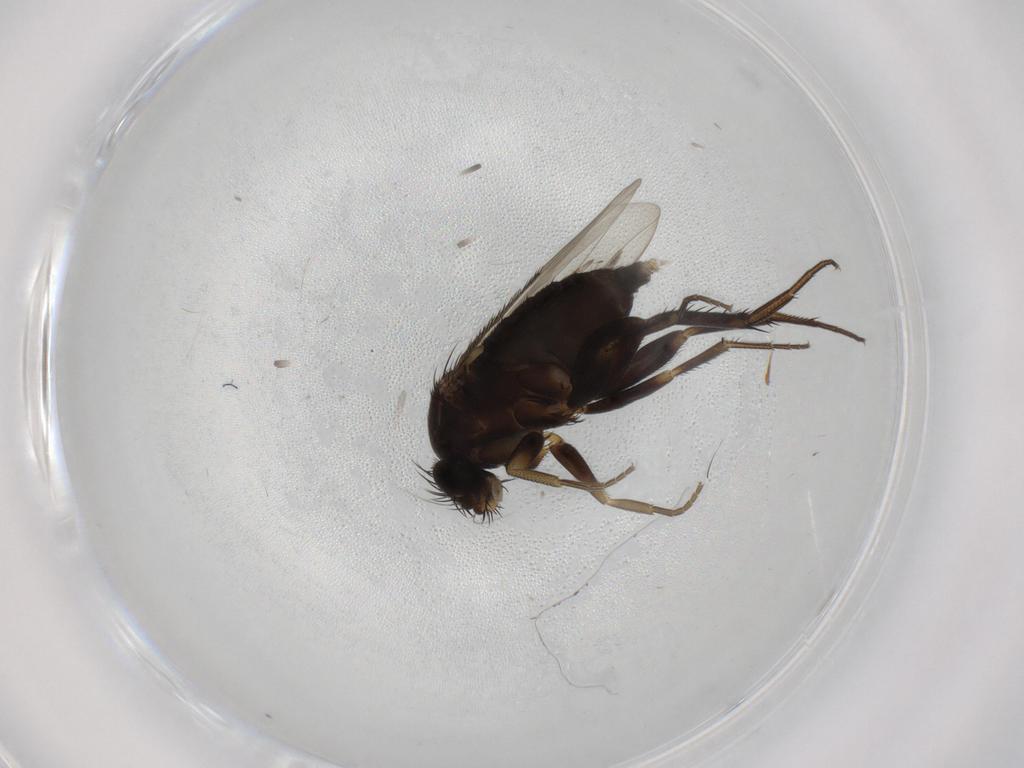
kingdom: Animalia
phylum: Arthropoda
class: Insecta
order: Diptera
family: Phoridae
